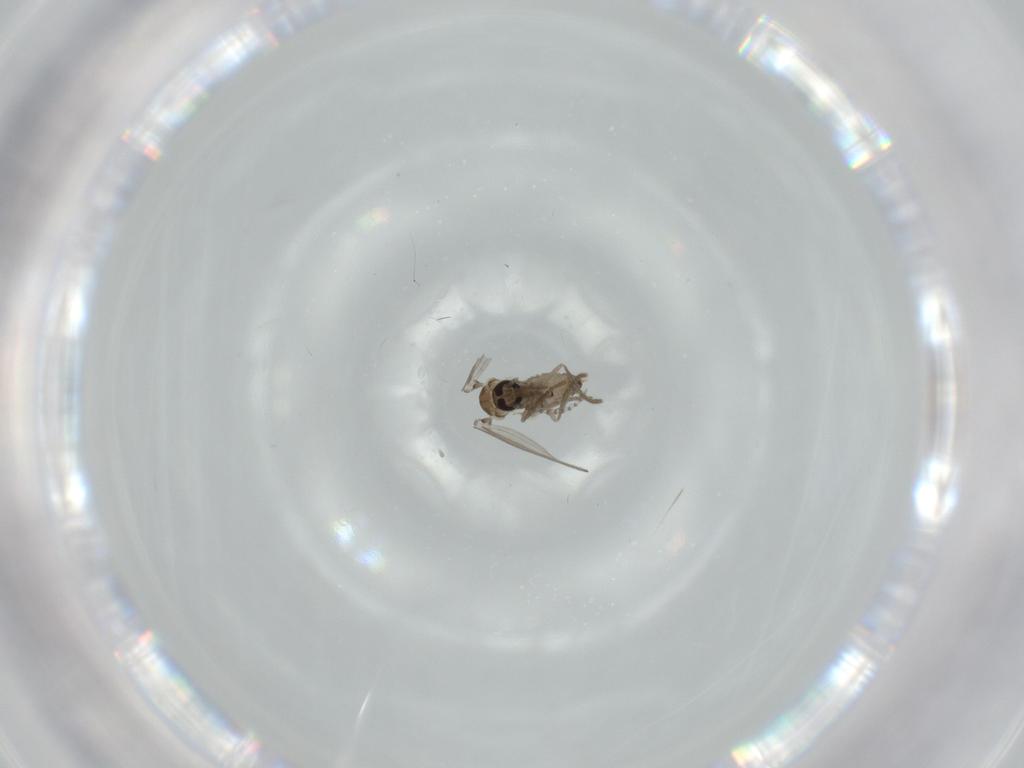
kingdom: Animalia
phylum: Arthropoda
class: Insecta
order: Diptera
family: Psychodidae
